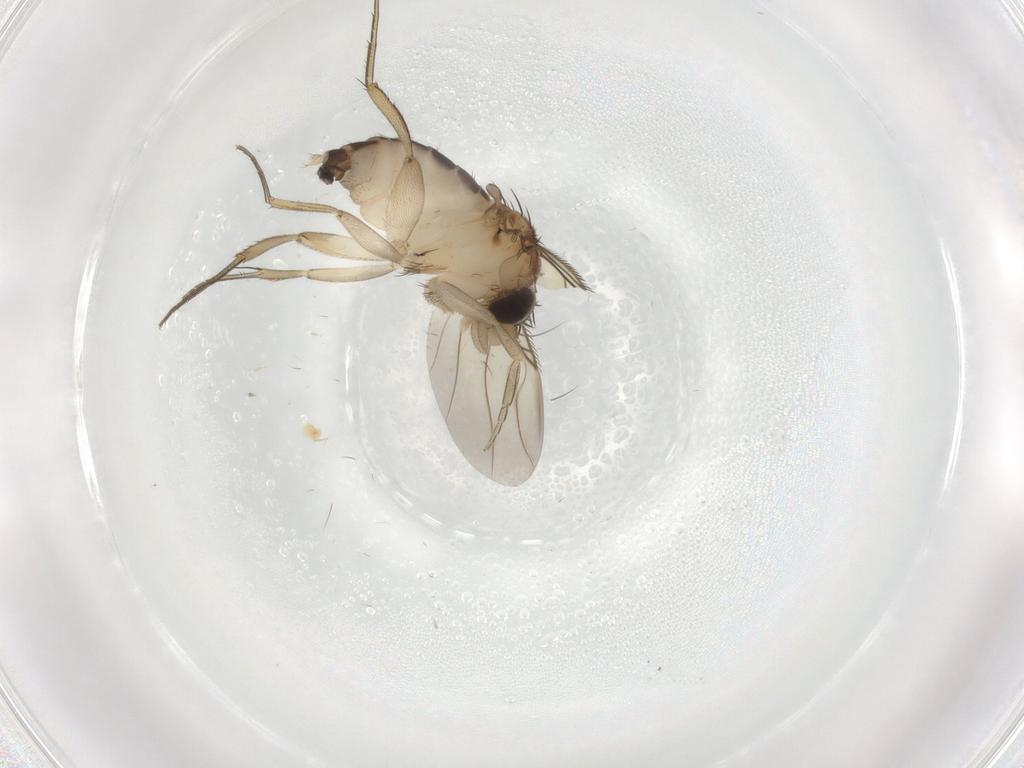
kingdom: Animalia
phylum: Arthropoda
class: Insecta
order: Diptera
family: Phoridae
